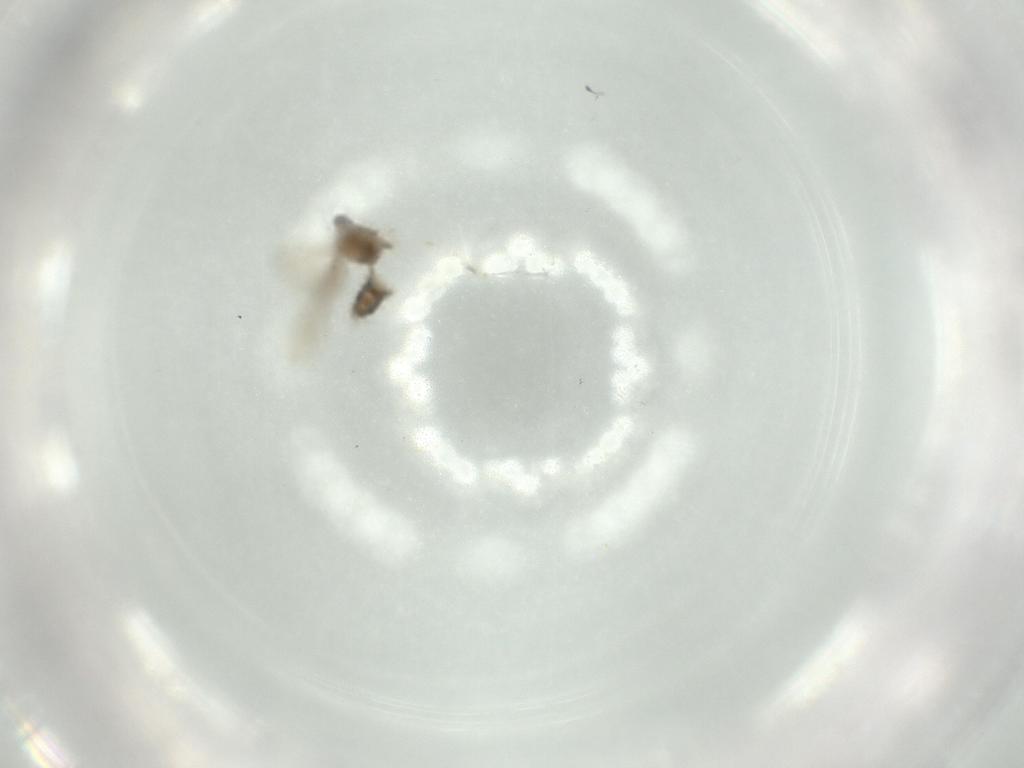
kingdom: Animalia
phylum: Arthropoda
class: Insecta
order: Diptera
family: Cecidomyiidae
